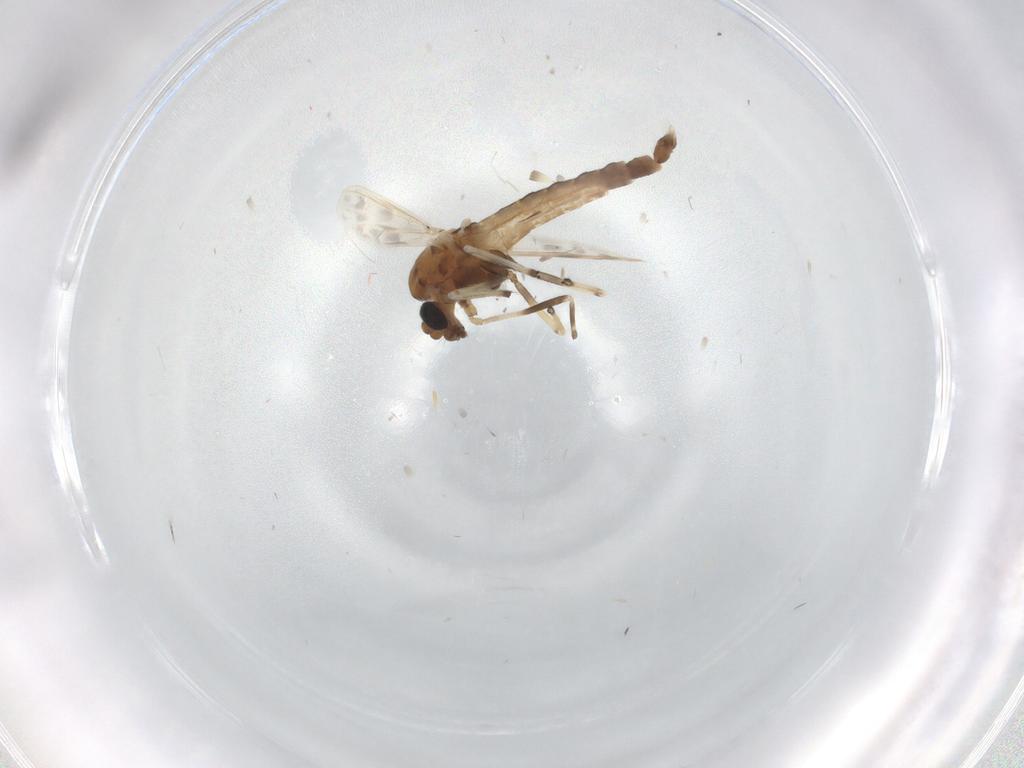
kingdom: Animalia
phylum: Arthropoda
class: Insecta
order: Diptera
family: Chironomidae
